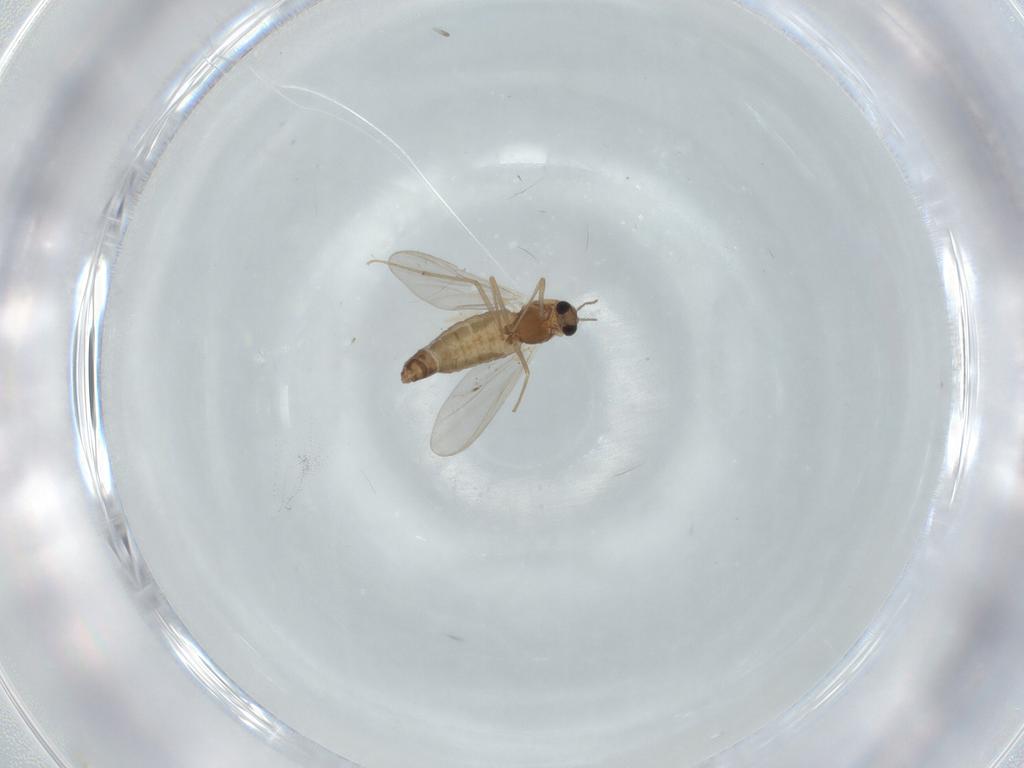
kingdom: Animalia
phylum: Arthropoda
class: Insecta
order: Diptera
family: Chironomidae
